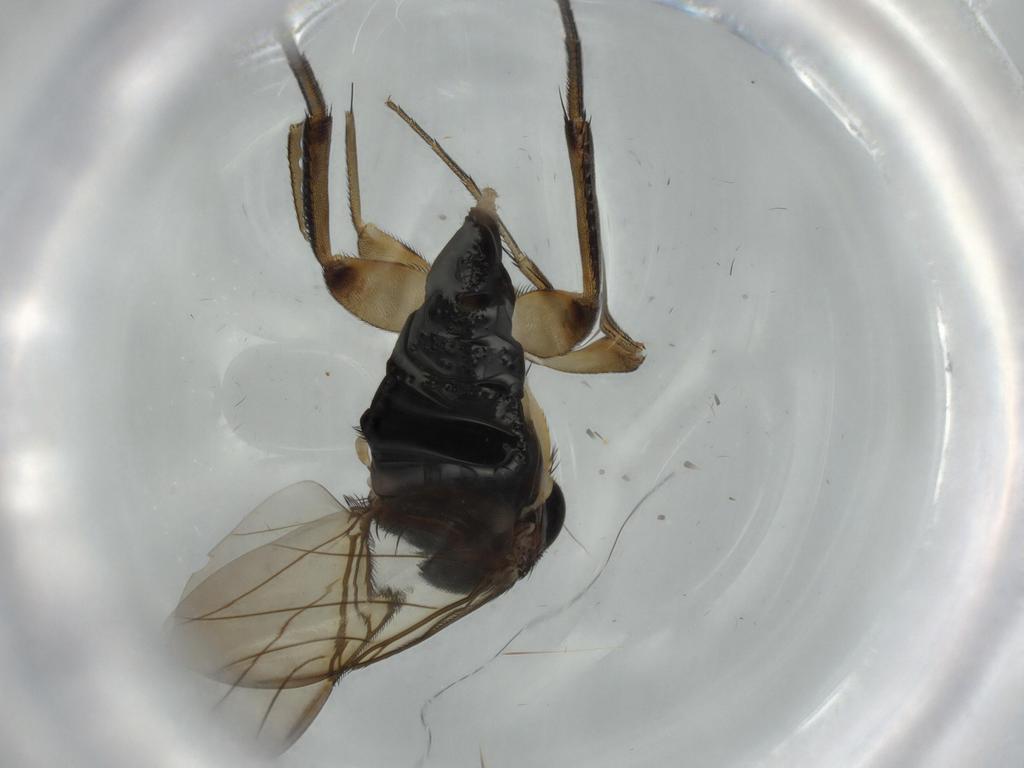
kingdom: Animalia
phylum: Arthropoda
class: Insecta
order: Diptera
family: Phoridae
